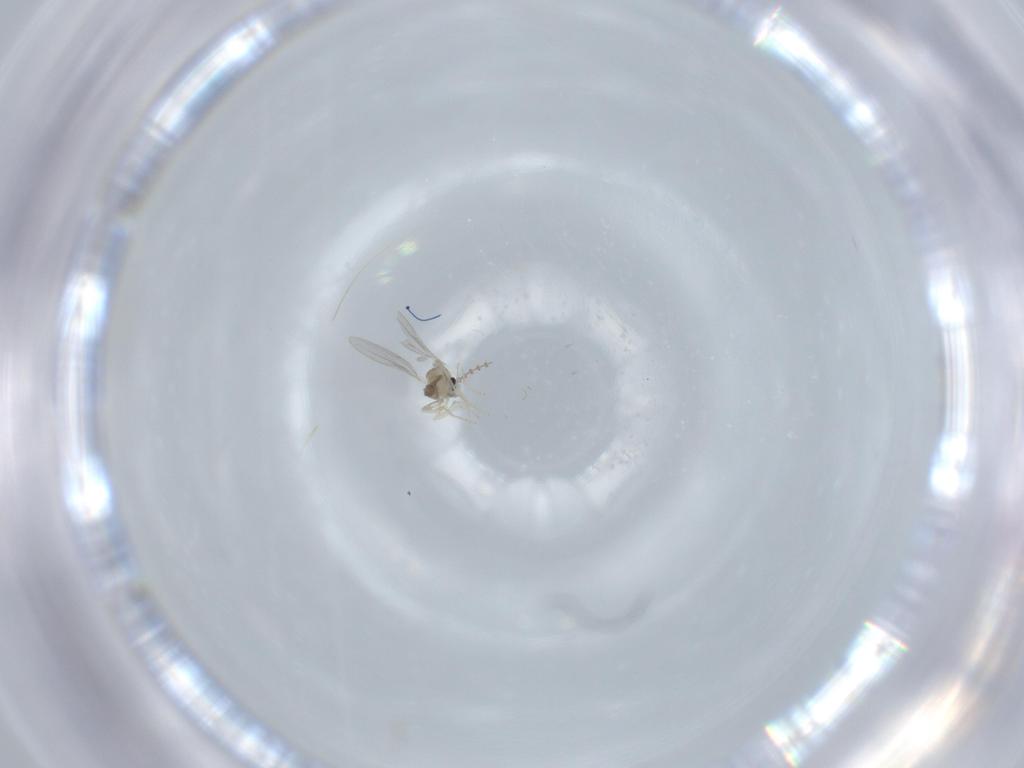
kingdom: Animalia
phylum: Arthropoda
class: Insecta
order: Diptera
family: Cecidomyiidae
